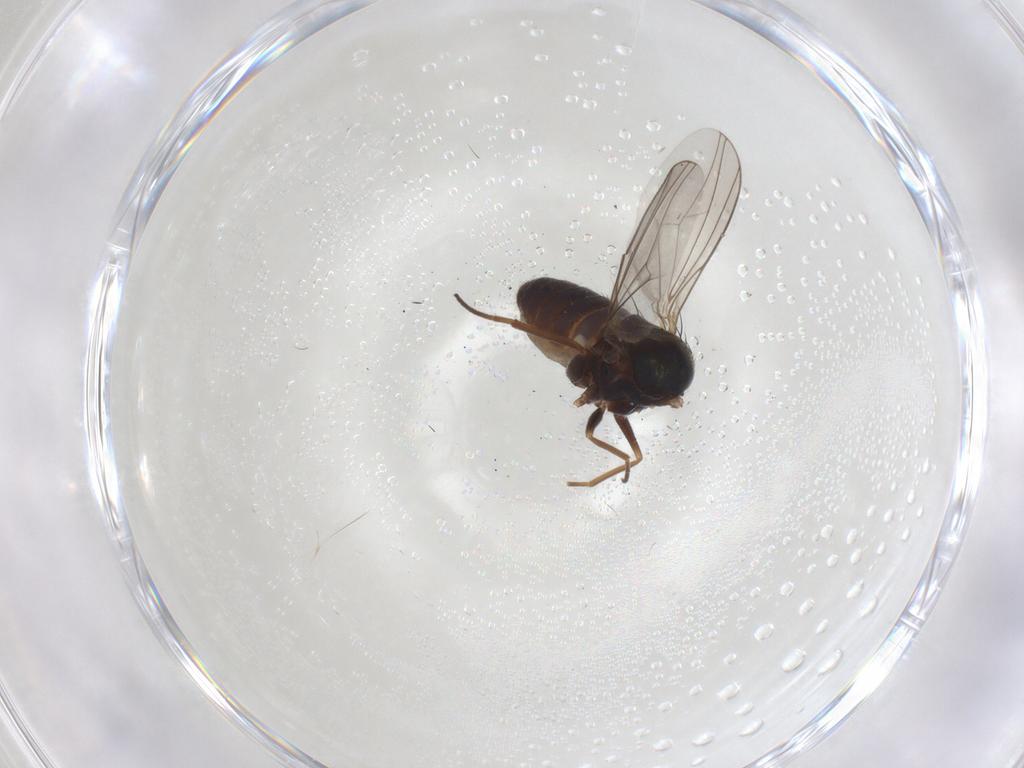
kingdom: Animalia
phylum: Arthropoda
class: Insecta
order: Diptera
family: Dolichopodidae
